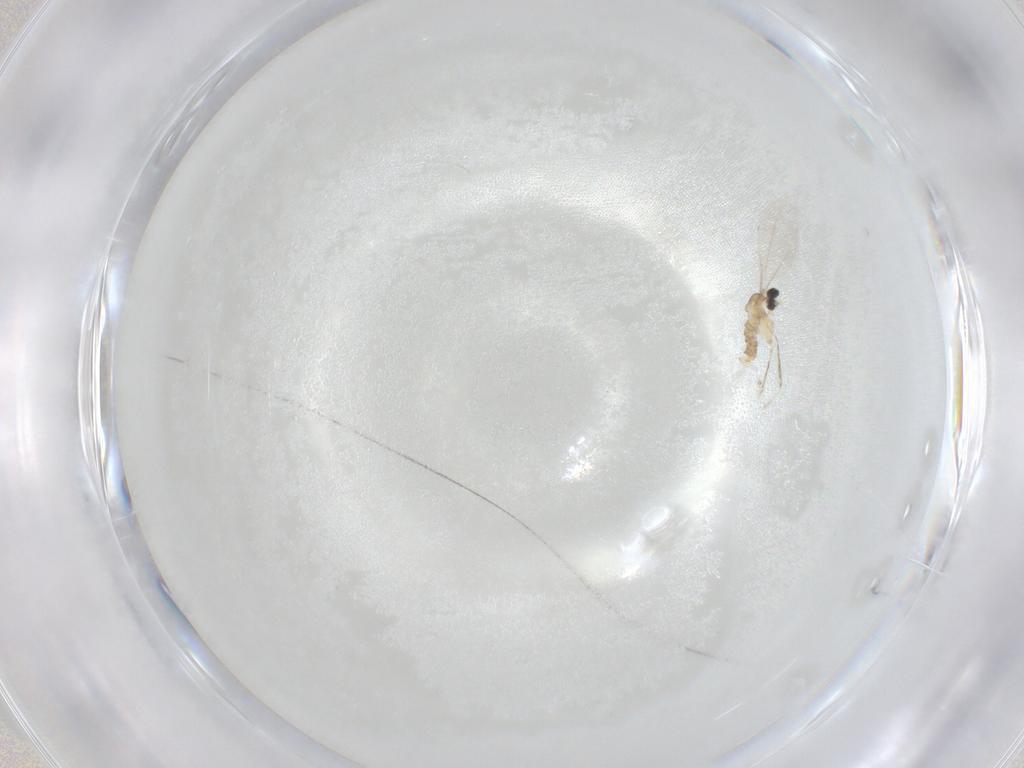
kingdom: Animalia
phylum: Arthropoda
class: Insecta
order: Diptera
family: Cecidomyiidae
